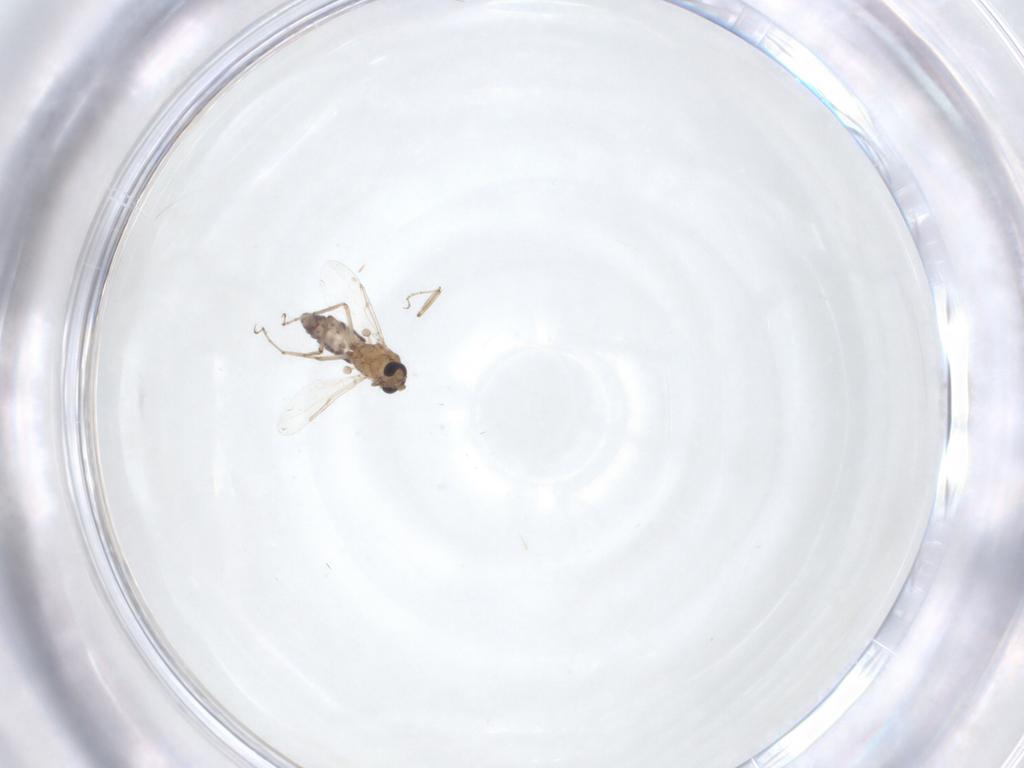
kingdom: Animalia
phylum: Arthropoda
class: Insecta
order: Diptera
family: Ceratopogonidae
